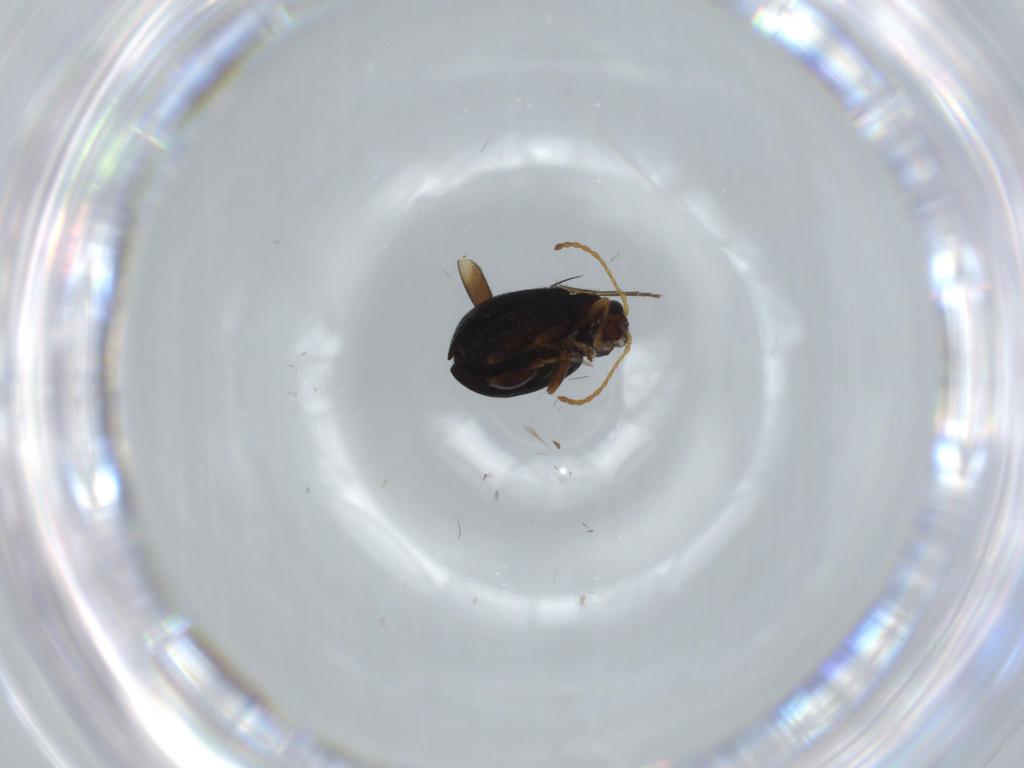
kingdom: Animalia
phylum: Arthropoda
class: Insecta
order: Coleoptera
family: Chrysomelidae
